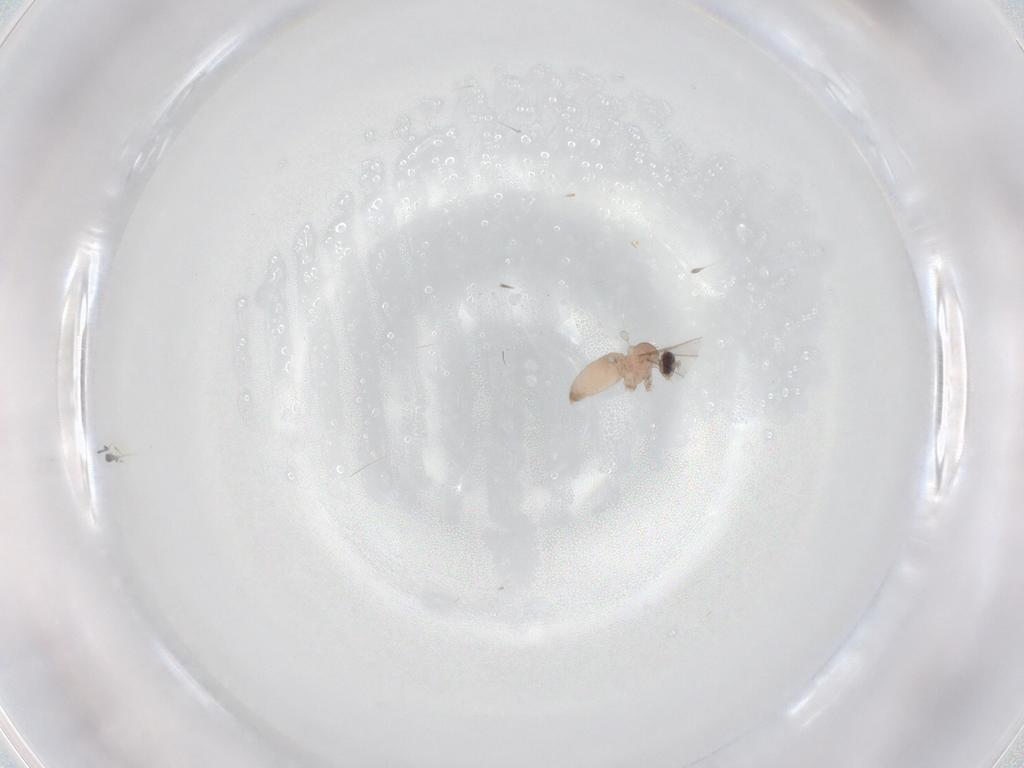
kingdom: Animalia
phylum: Arthropoda
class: Insecta
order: Diptera
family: Cecidomyiidae
